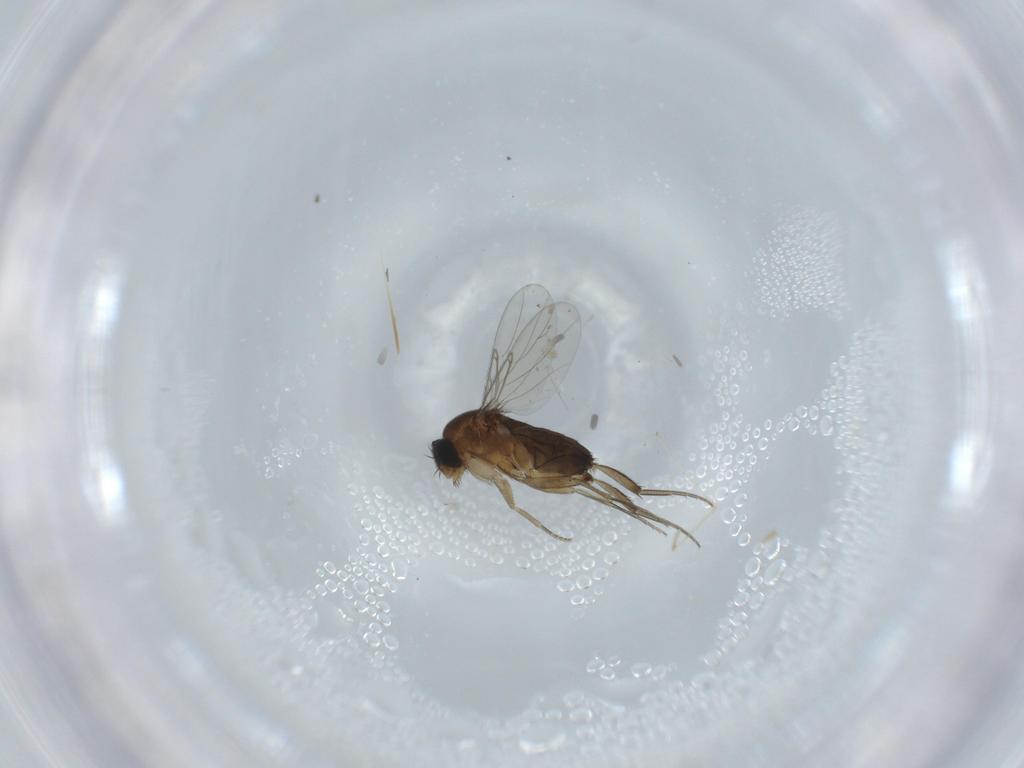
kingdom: Animalia
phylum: Arthropoda
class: Insecta
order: Diptera
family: Phoridae
